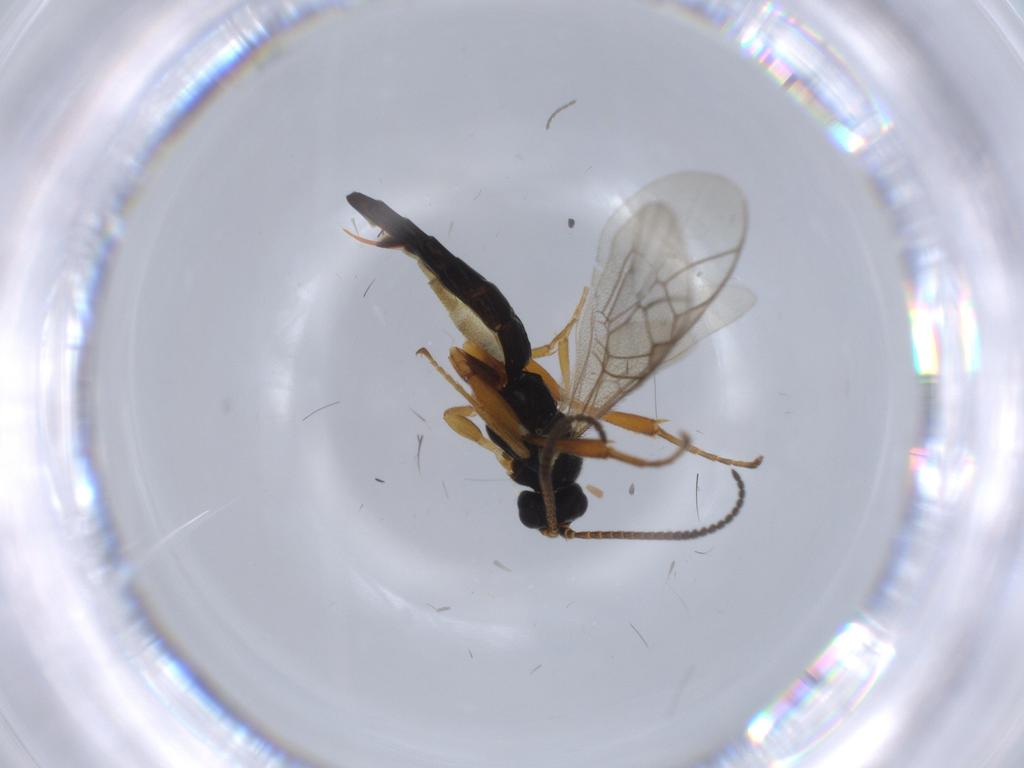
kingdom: Animalia
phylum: Arthropoda
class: Insecta
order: Hymenoptera
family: Ichneumonidae
